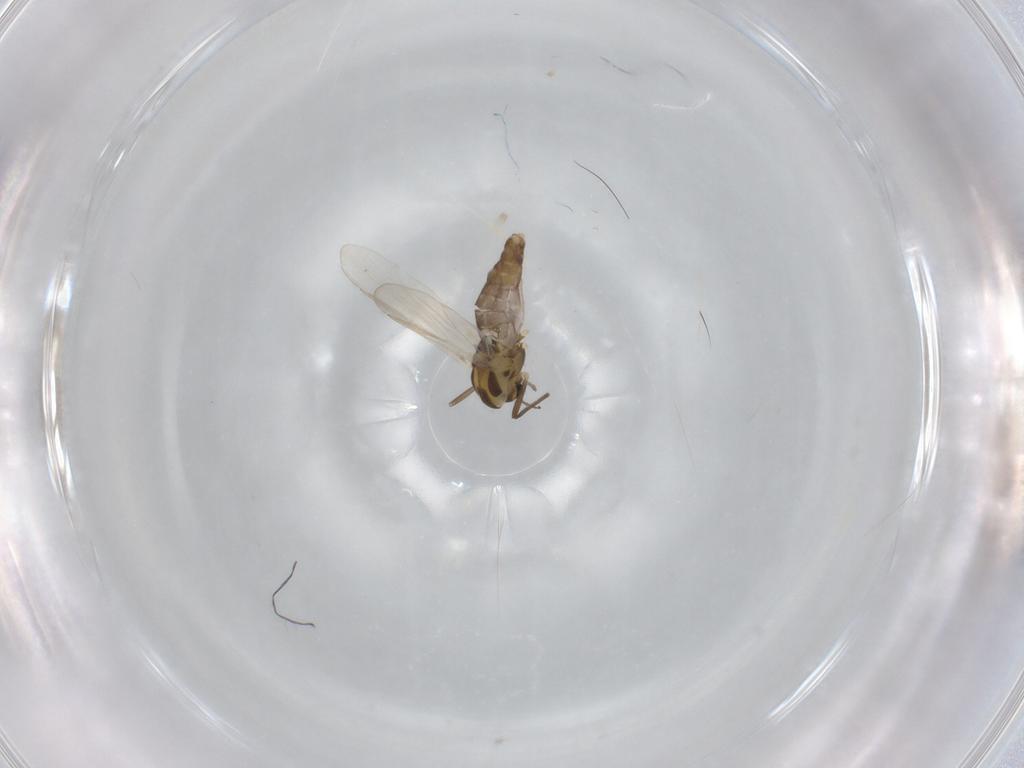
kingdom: Animalia
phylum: Arthropoda
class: Insecta
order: Diptera
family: Chironomidae
